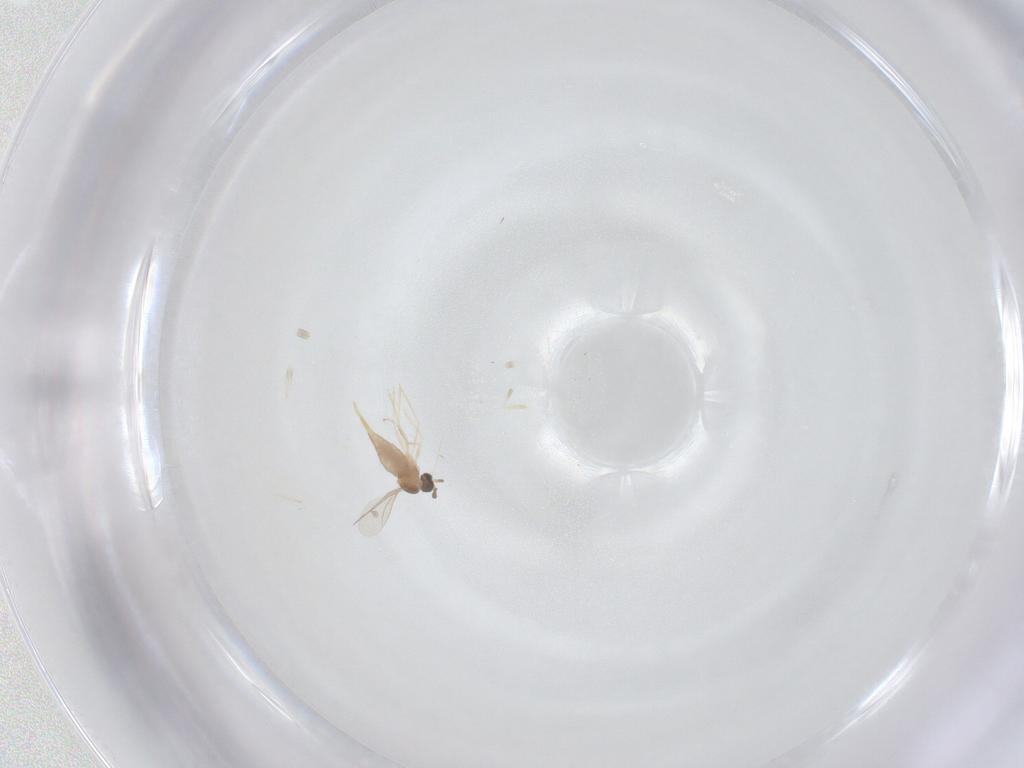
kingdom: Animalia
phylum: Arthropoda
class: Insecta
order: Diptera
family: Cecidomyiidae
